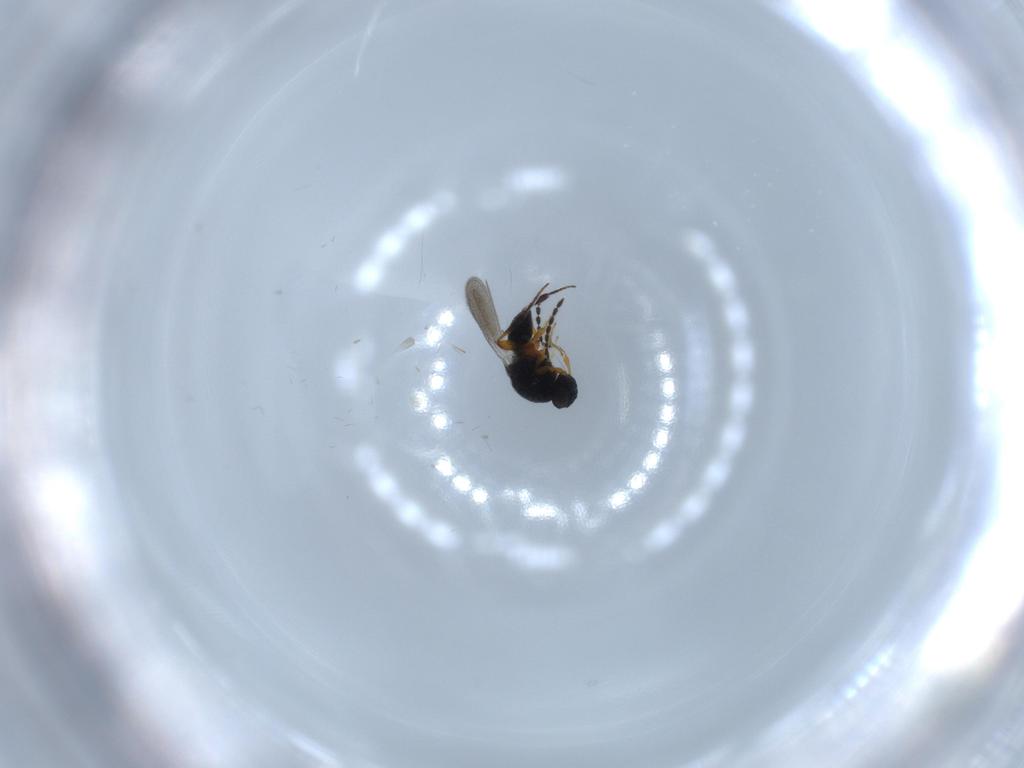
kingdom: Animalia
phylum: Arthropoda
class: Insecta
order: Hymenoptera
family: Platygastridae
